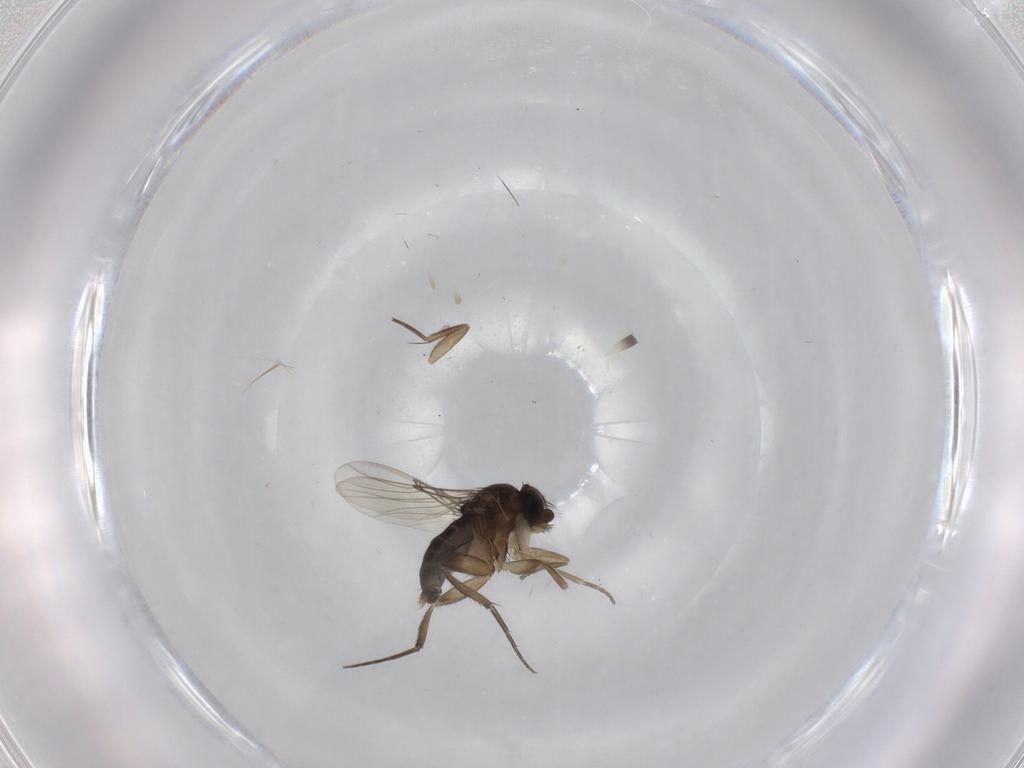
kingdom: Animalia
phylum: Arthropoda
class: Insecta
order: Diptera
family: Phoridae
